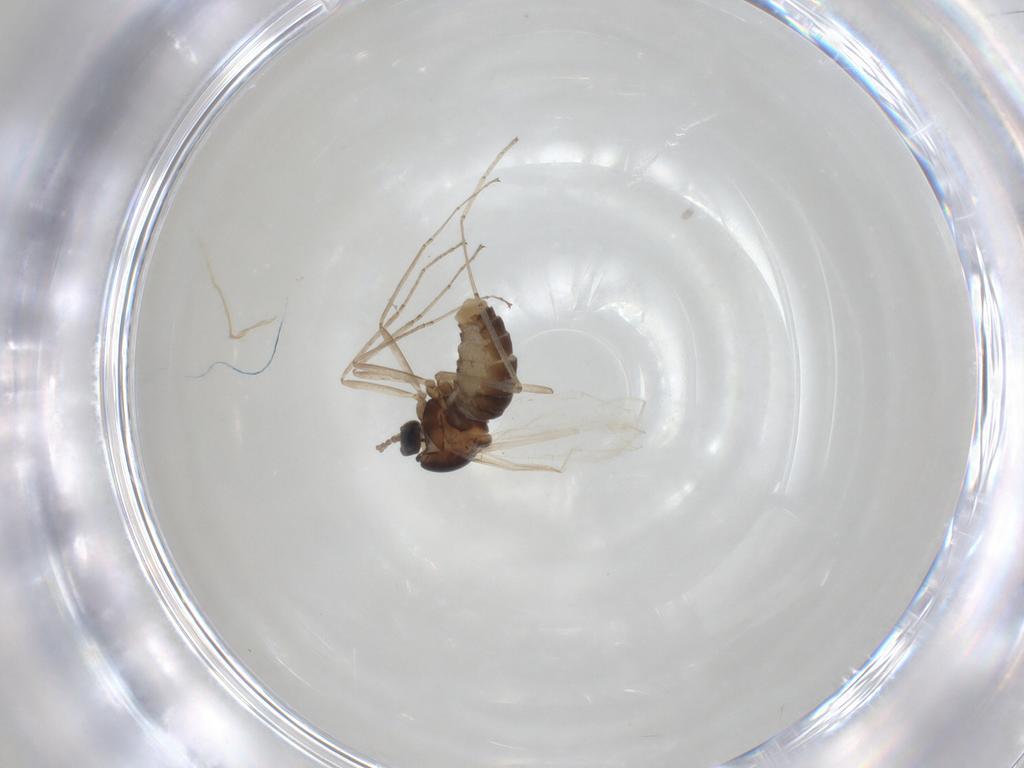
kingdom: Animalia
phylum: Arthropoda
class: Insecta
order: Diptera
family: Cecidomyiidae
